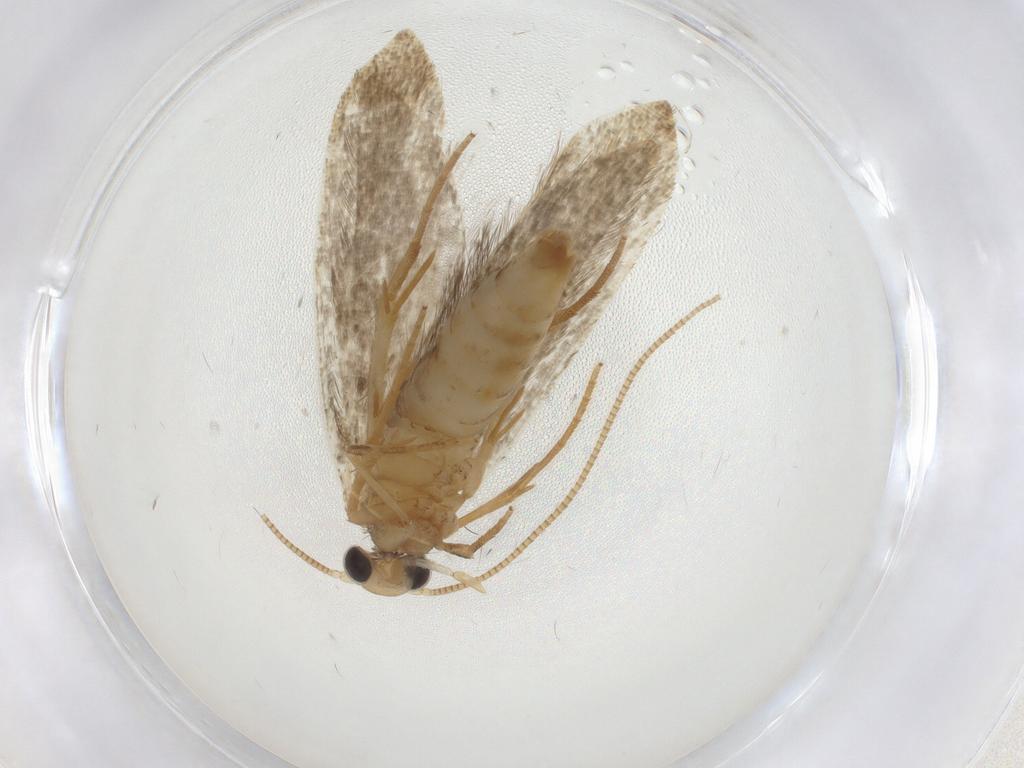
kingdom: Animalia
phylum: Arthropoda
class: Insecta
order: Lepidoptera
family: Tineidae
